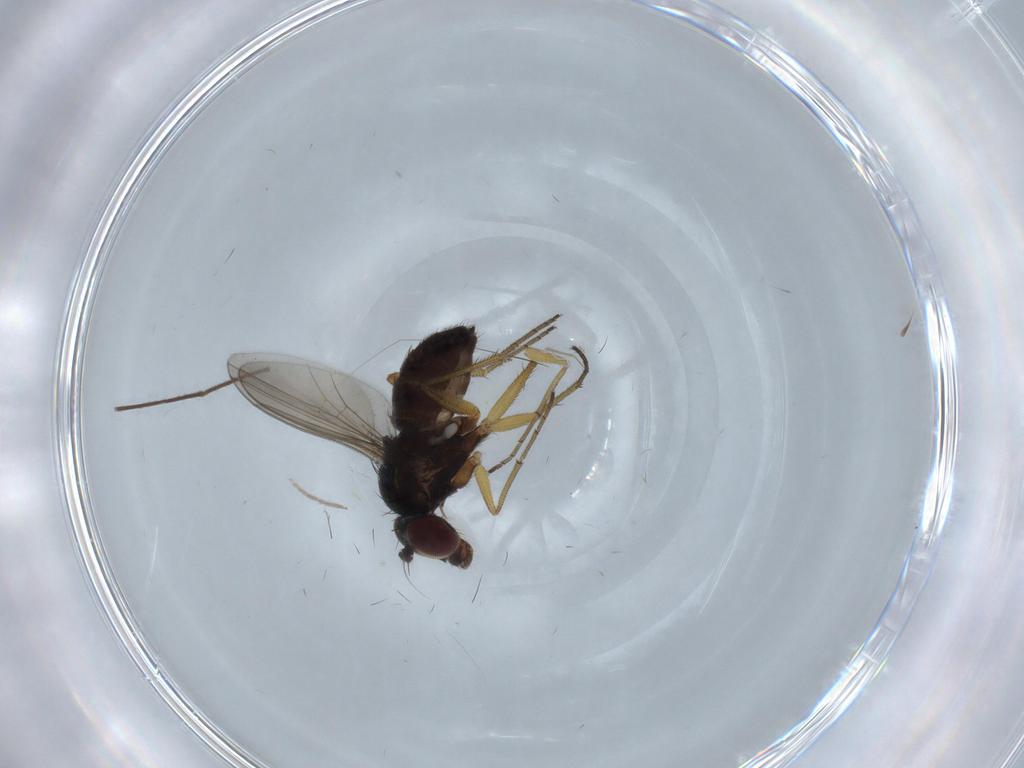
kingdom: Animalia
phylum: Arthropoda
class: Insecta
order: Diptera
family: Dolichopodidae
